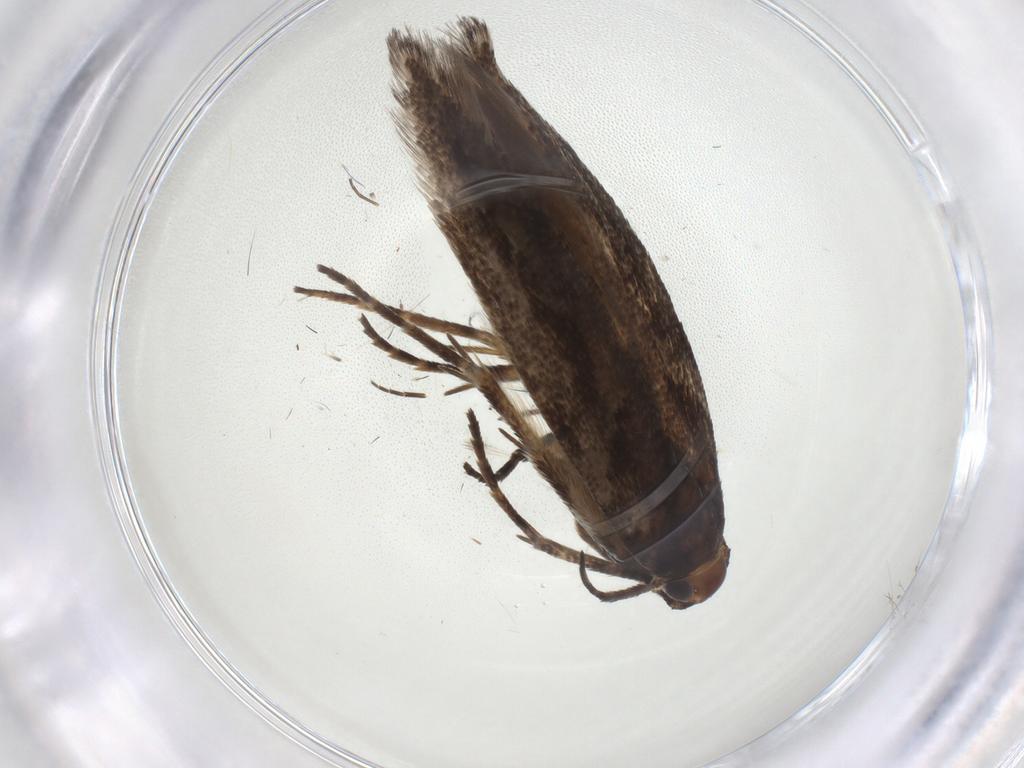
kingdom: Animalia
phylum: Arthropoda
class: Insecta
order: Lepidoptera
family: Gelechiidae
